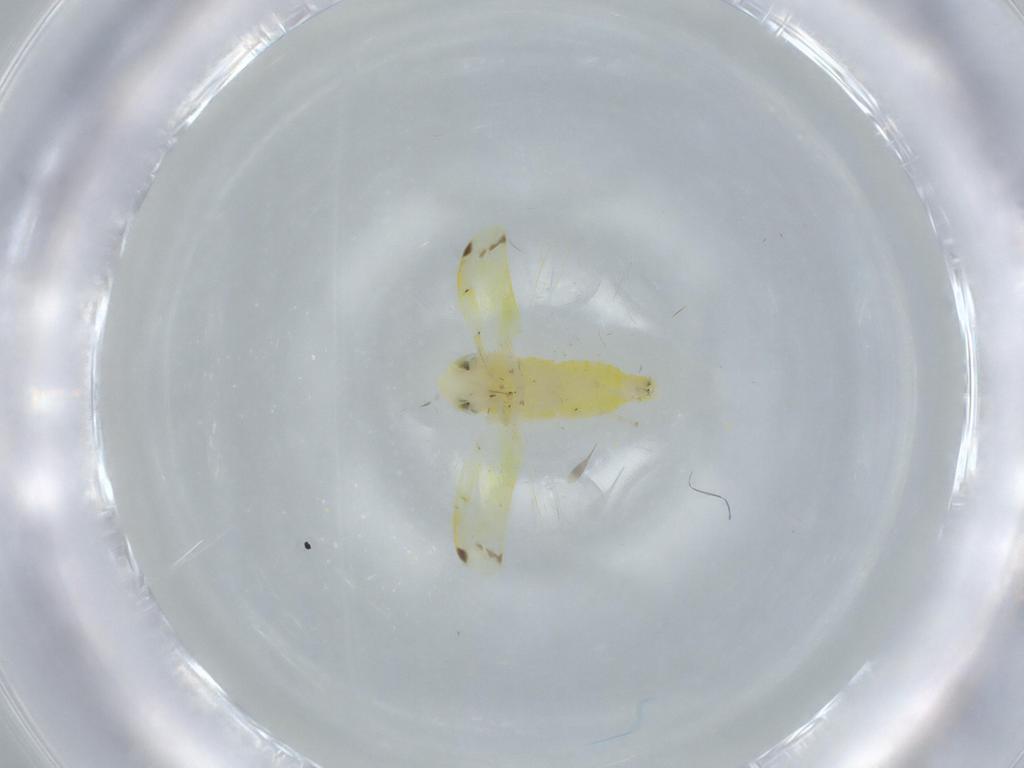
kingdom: Animalia
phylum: Arthropoda
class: Insecta
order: Hemiptera
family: Cicadellidae
